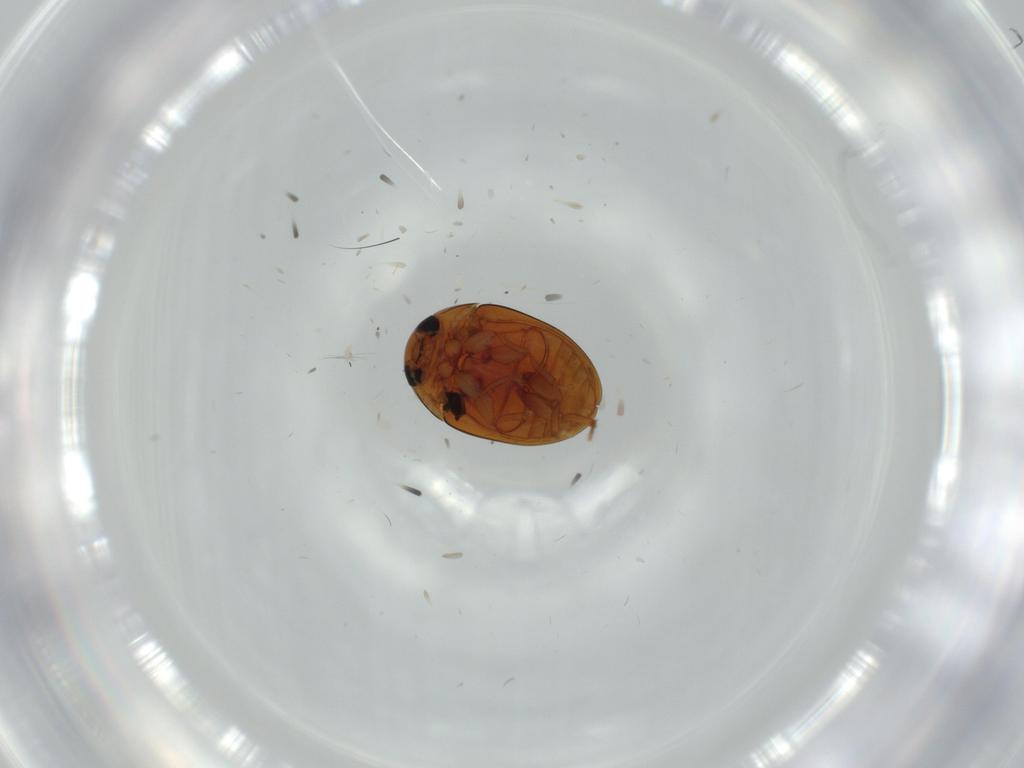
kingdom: Animalia
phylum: Arthropoda
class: Insecta
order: Coleoptera
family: Phalacridae
